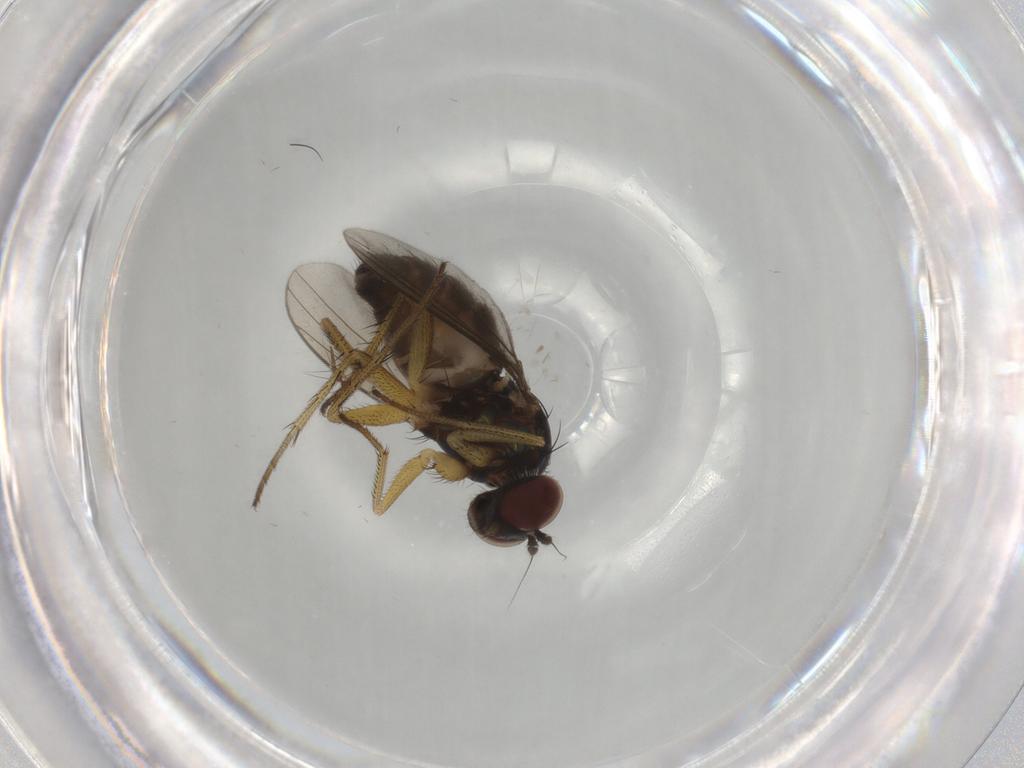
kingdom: Animalia
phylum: Arthropoda
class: Insecta
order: Diptera
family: Dolichopodidae
